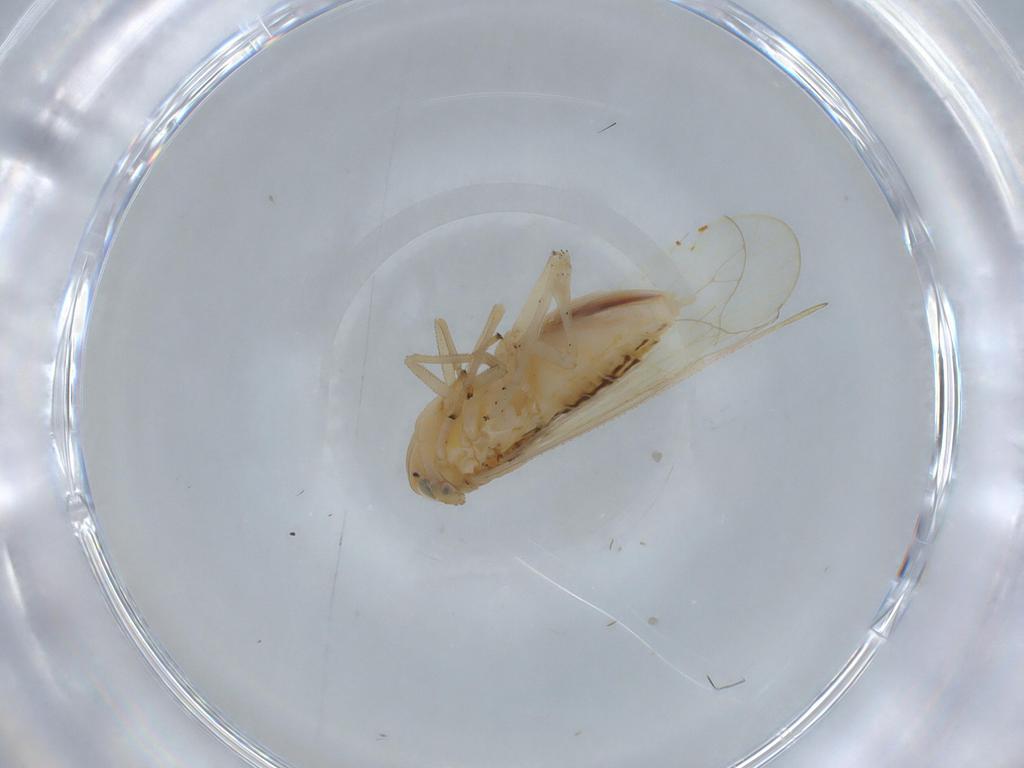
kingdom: Animalia
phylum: Arthropoda
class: Insecta
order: Hemiptera
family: Delphacidae
